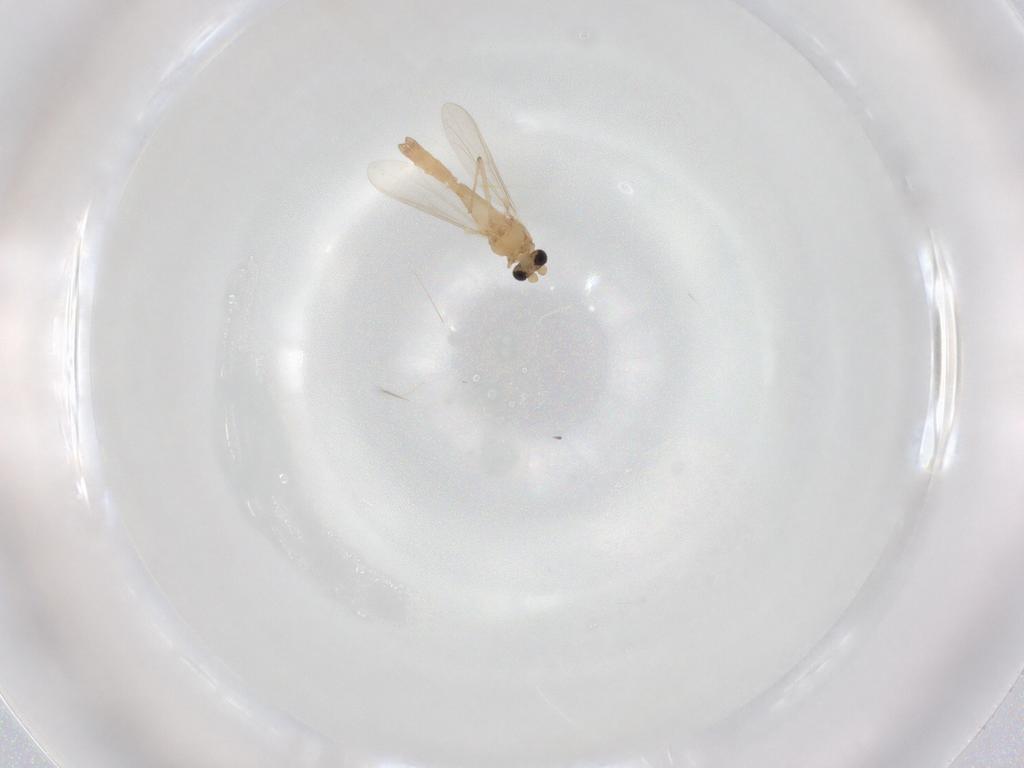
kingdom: Animalia
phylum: Arthropoda
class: Insecta
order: Diptera
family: Chironomidae
